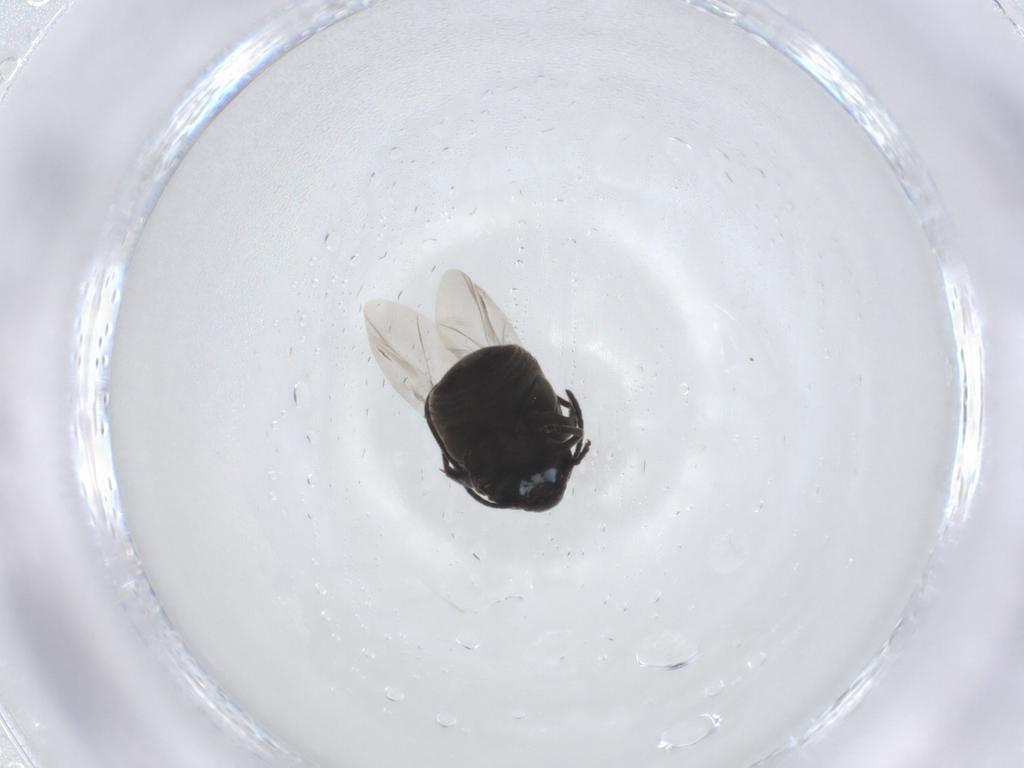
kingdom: Animalia
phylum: Arthropoda
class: Insecta
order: Coleoptera
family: Chrysomelidae
